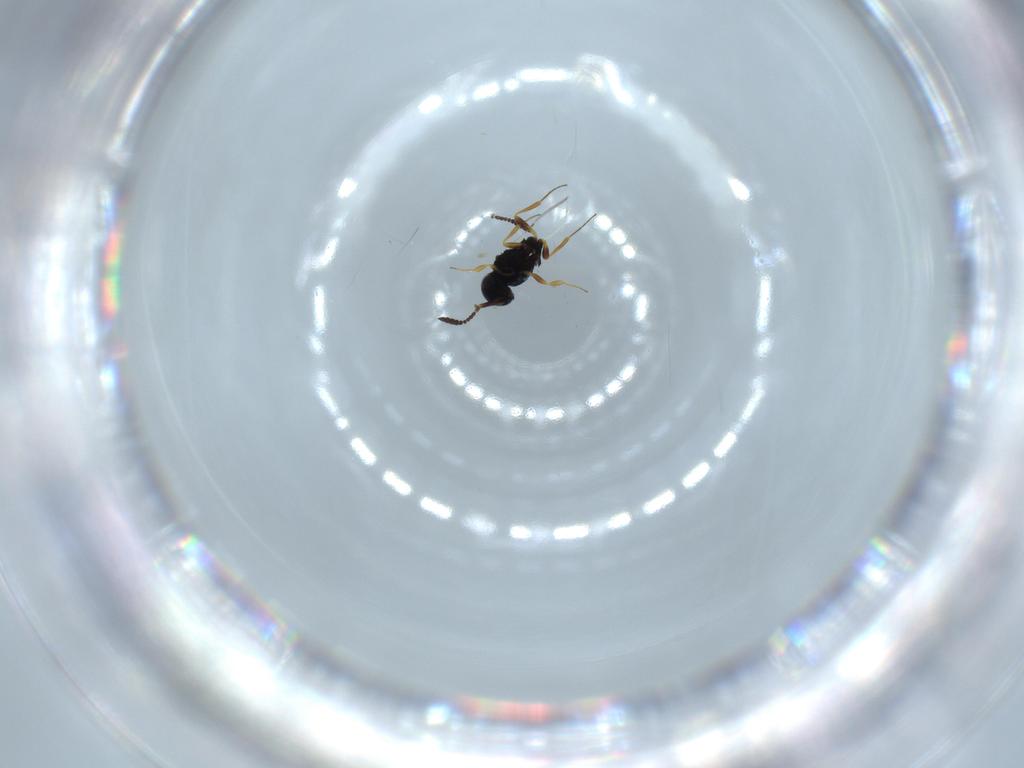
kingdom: Animalia
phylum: Arthropoda
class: Insecta
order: Hymenoptera
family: Scelionidae
